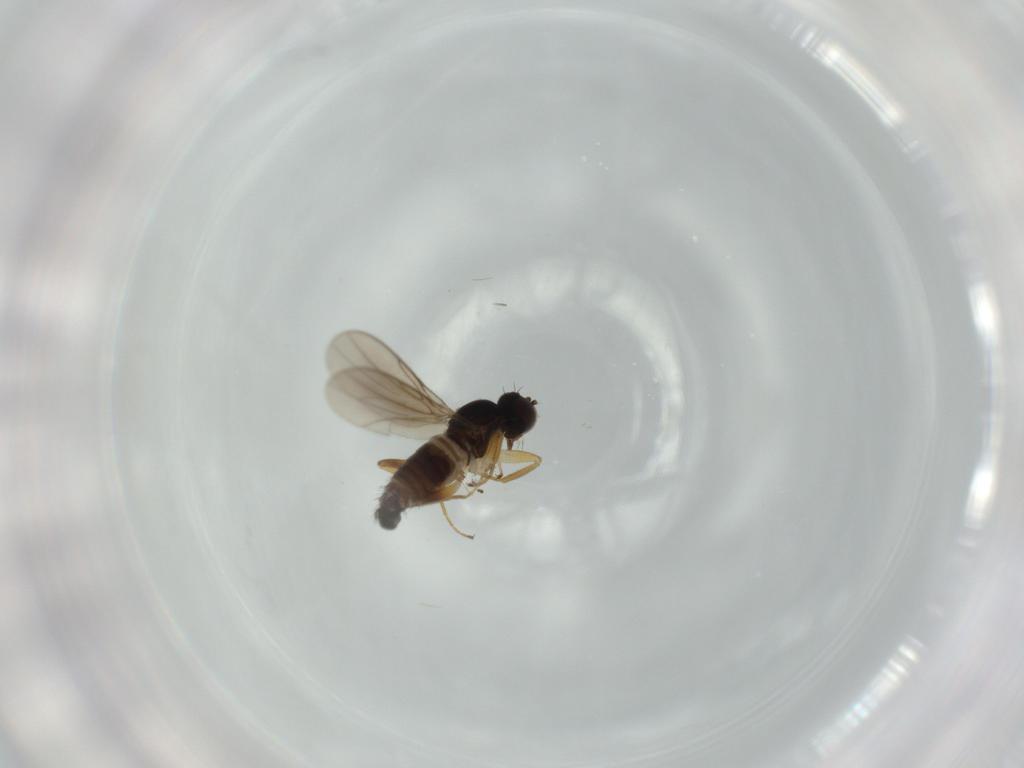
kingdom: Animalia
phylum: Arthropoda
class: Insecta
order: Diptera
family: Hybotidae
